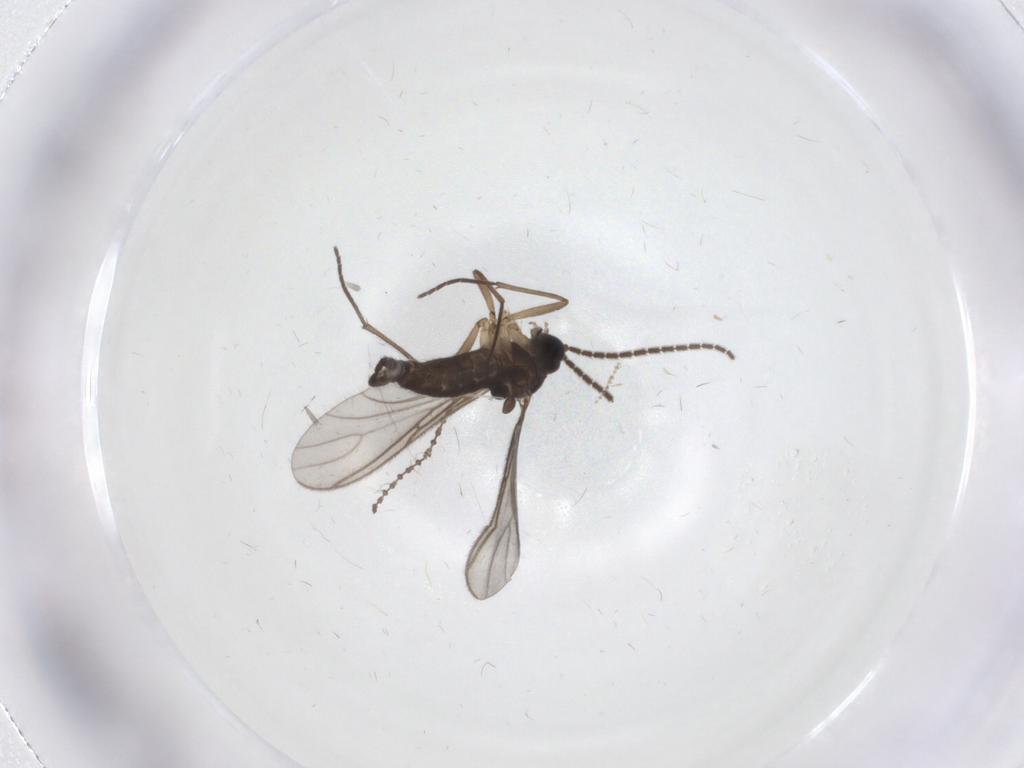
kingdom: Animalia
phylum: Arthropoda
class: Insecta
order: Diptera
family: Sciaridae
